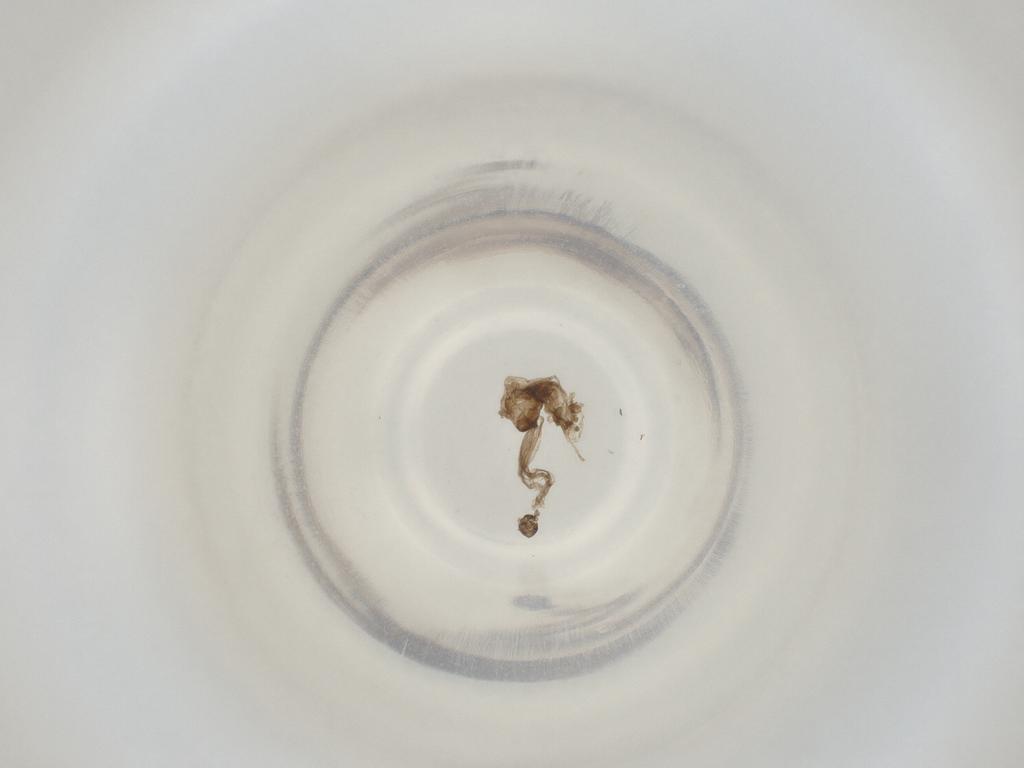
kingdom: Animalia
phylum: Arthropoda
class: Insecta
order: Diptera
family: Cecidomyiidae
